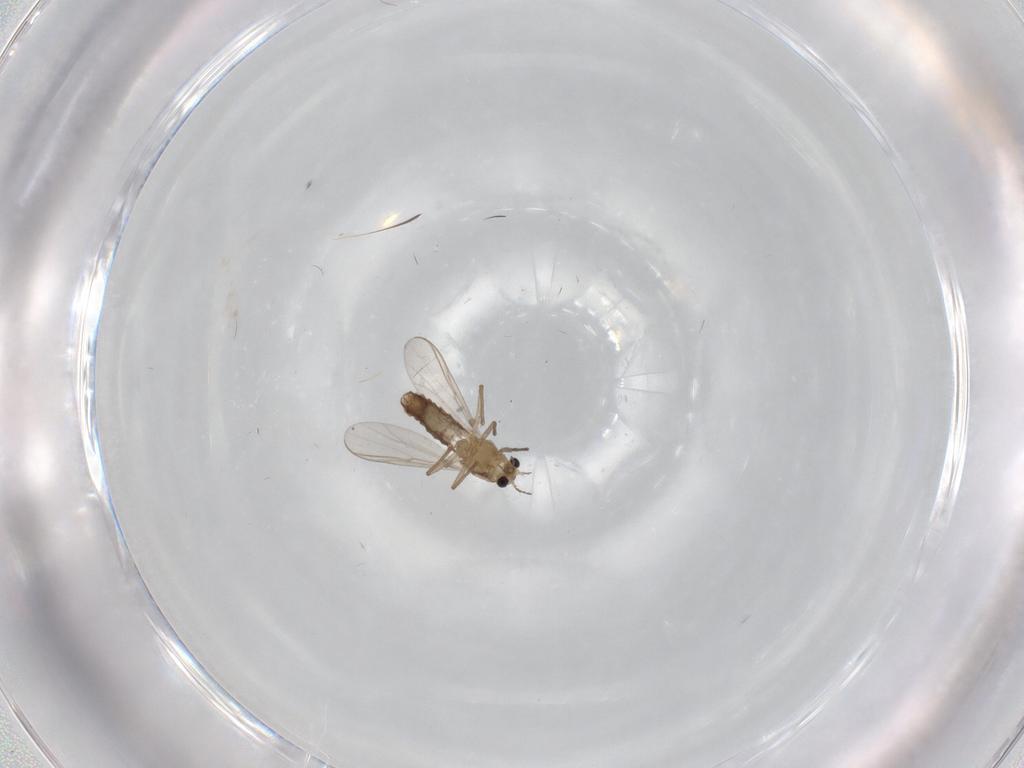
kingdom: Animalia
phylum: Arthropoda
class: Insecta
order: Diptera
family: Chironomidae
